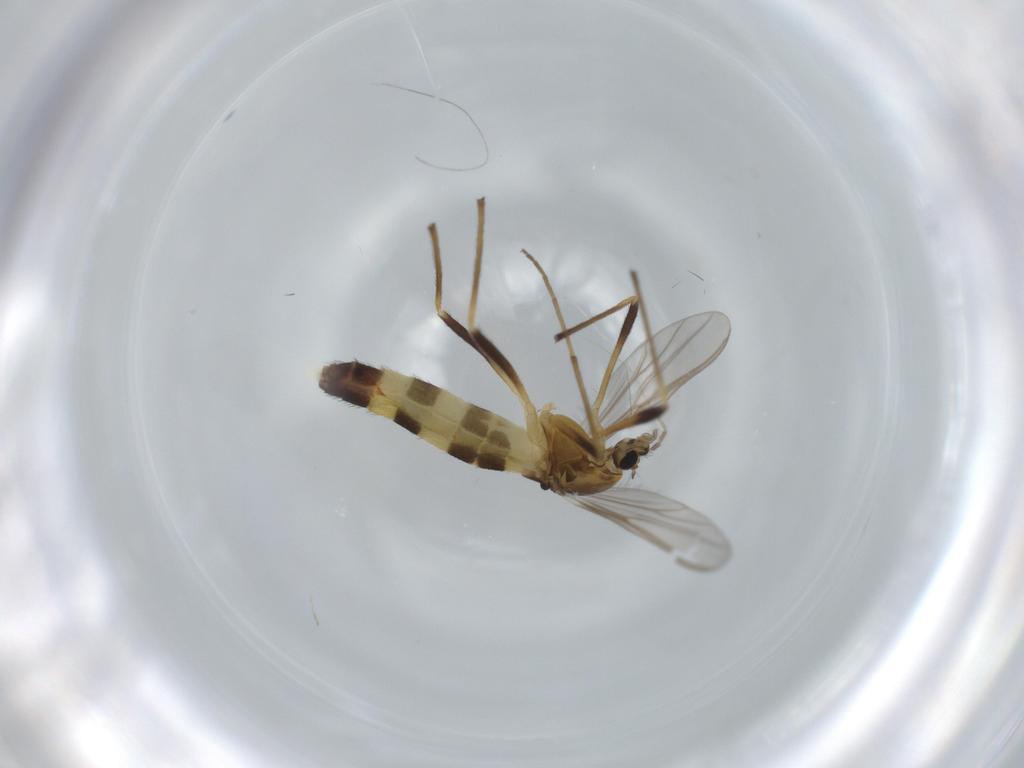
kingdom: Animalia
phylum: Arthropoda
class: Insecta
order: Diptera
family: Chironomidae
